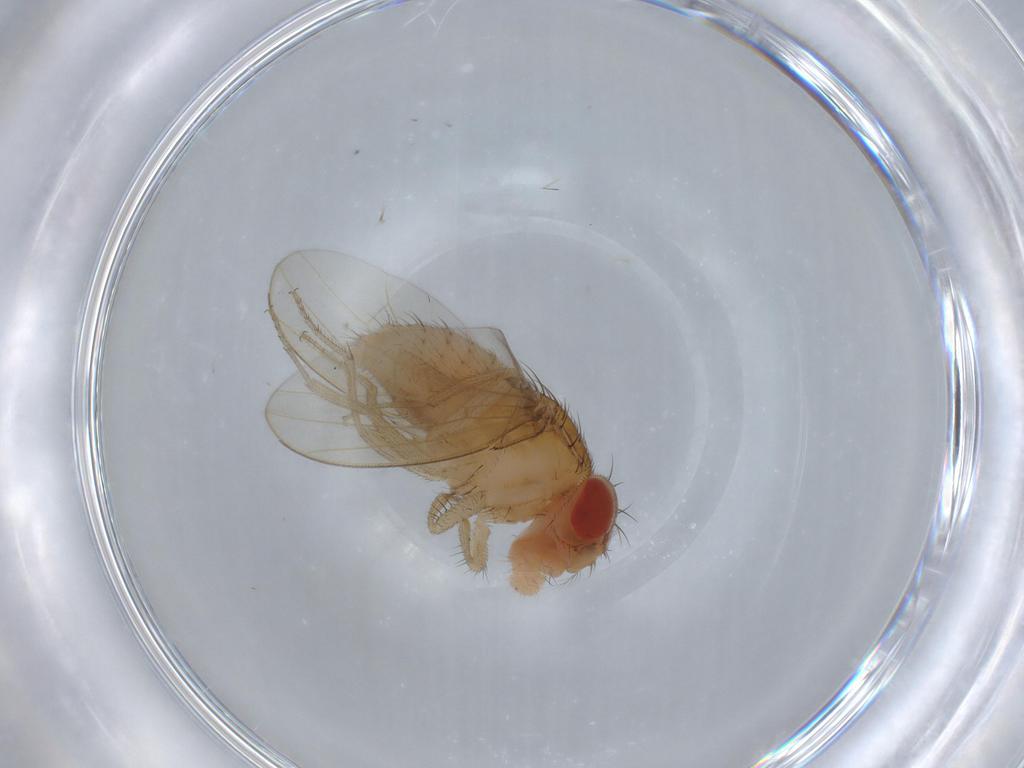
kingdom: Animalia
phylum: Arthropoda
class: Insecta
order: Diptera
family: Drosophilidae
